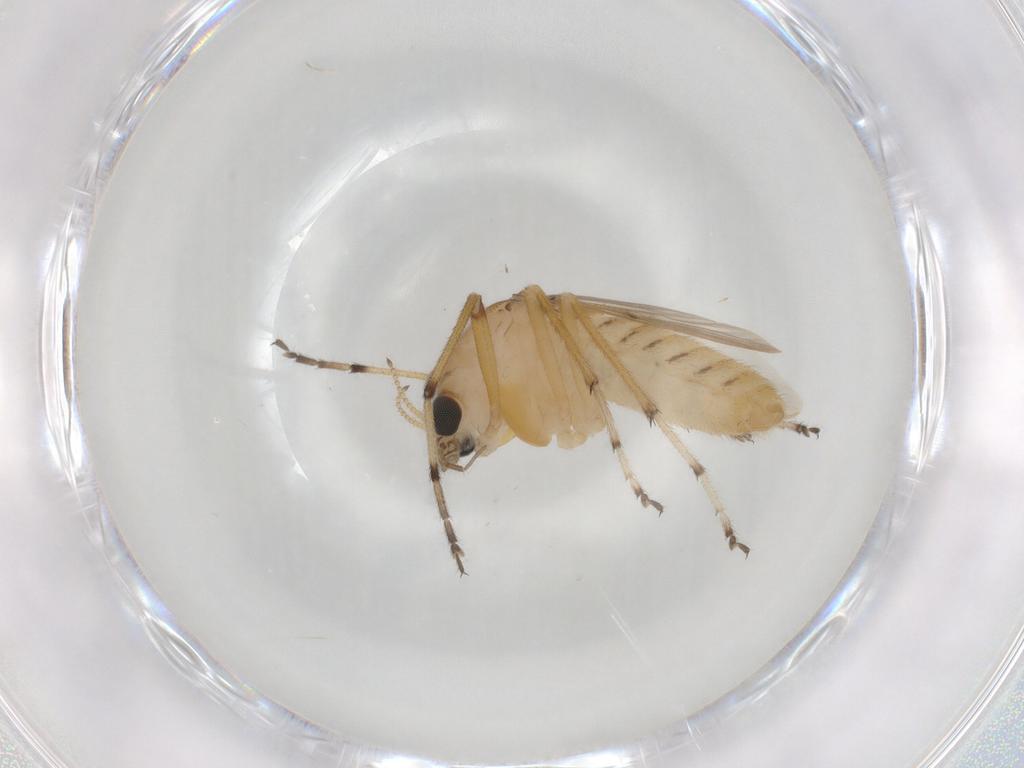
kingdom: Animalia
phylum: Arthropoda
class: Insecta
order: Diptera
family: Chironomidae
